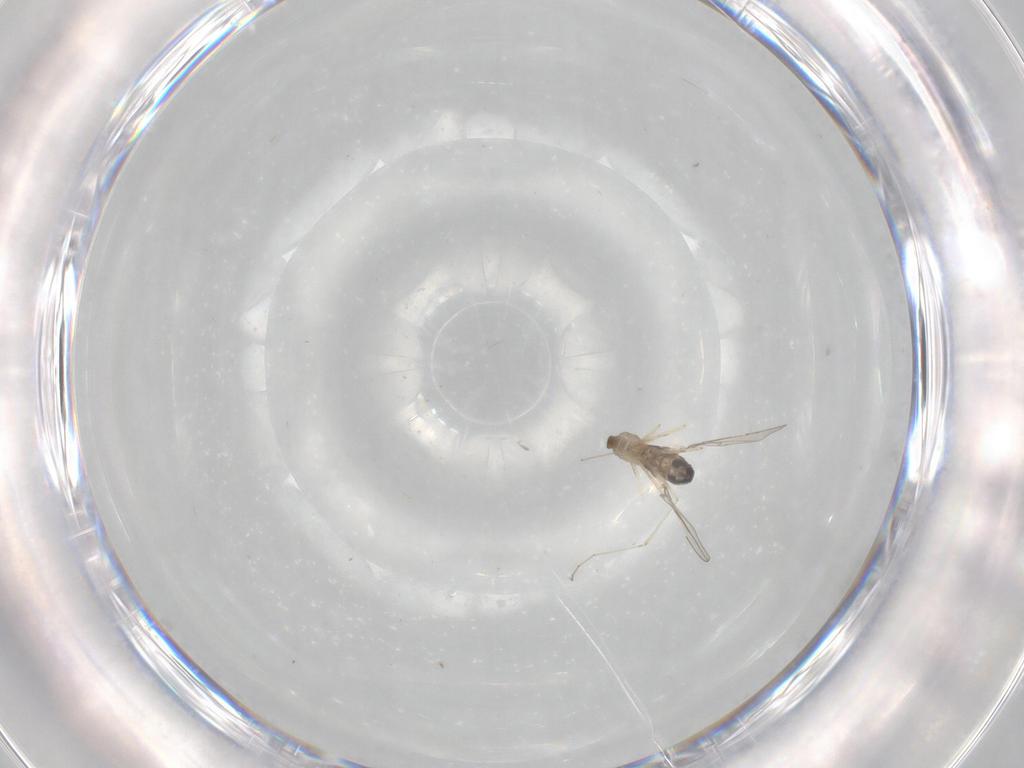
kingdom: Animalia
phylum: Arthropoda
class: Insecta
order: Diptera
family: Cecidomyiidae
